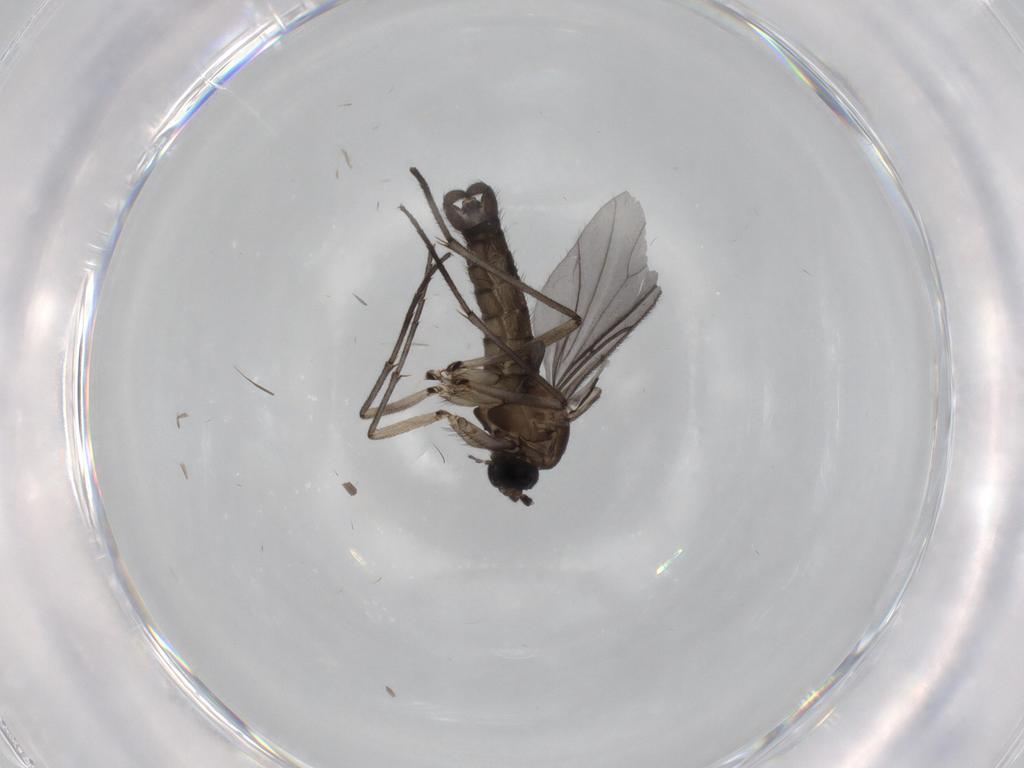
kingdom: Animalia
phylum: Arthropoda
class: Insecta
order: Diptera
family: Sciaridae
